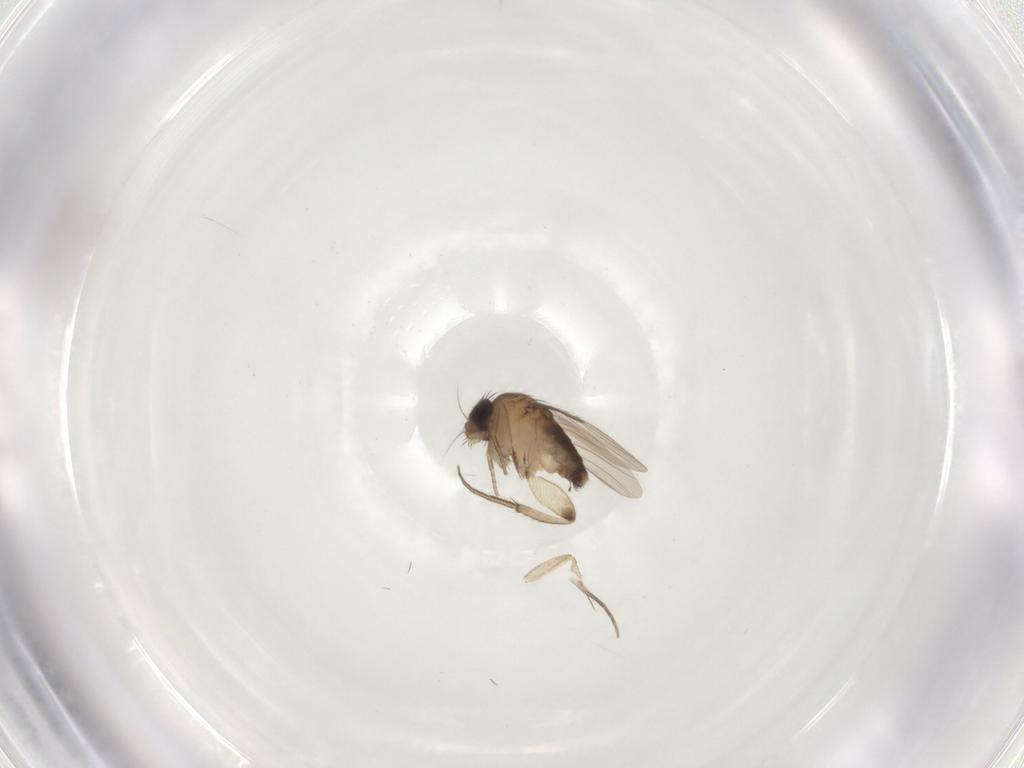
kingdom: Animalia
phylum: Arthropoda
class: Insecta
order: Diptera
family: Phoridae
